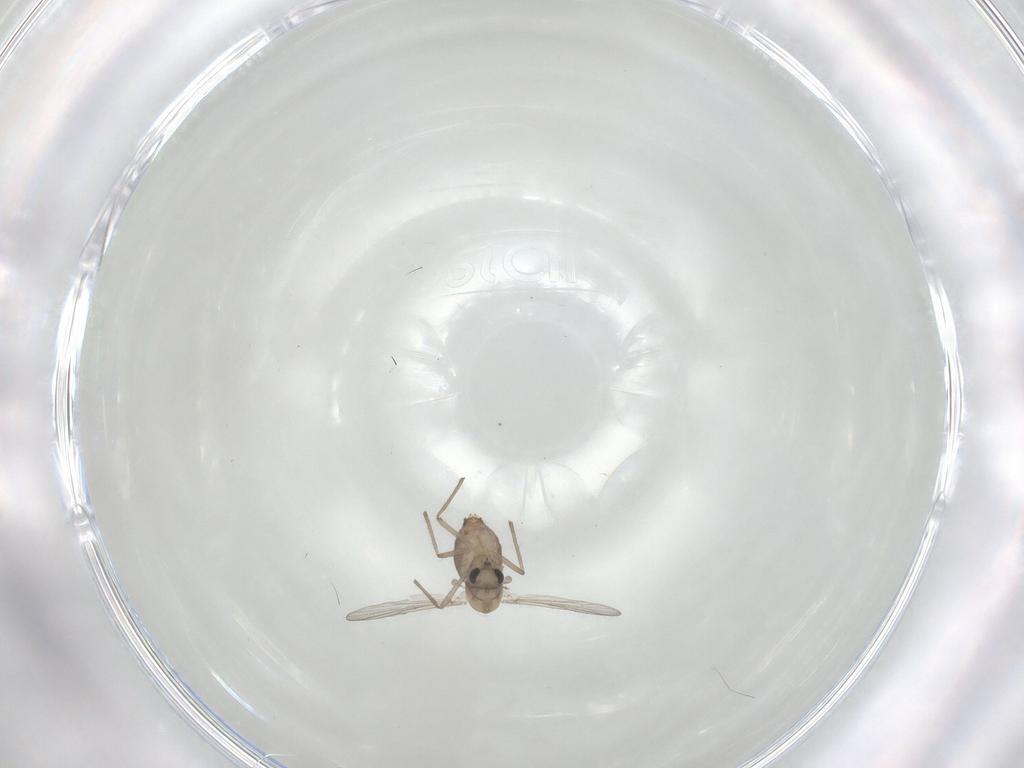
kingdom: Animalia
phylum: Arthropoda
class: Insecta
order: Diptera
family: Chironomidae
